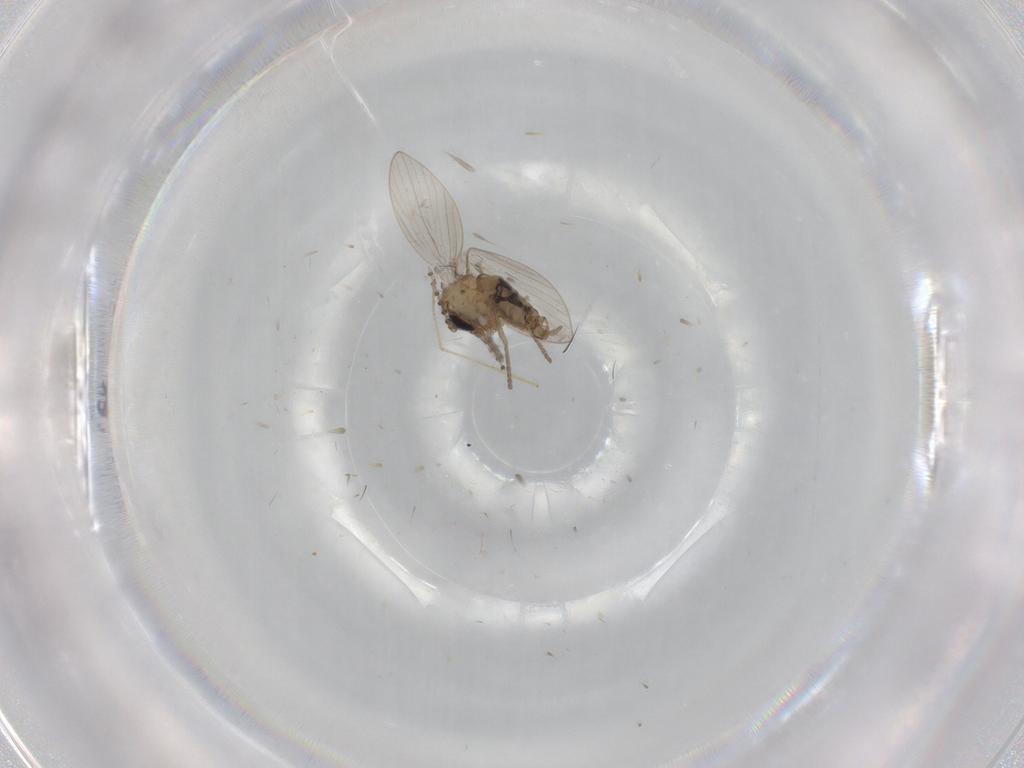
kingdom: Animalia
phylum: Arthropoda
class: Insecta
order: Diptera
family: Psychodidae
